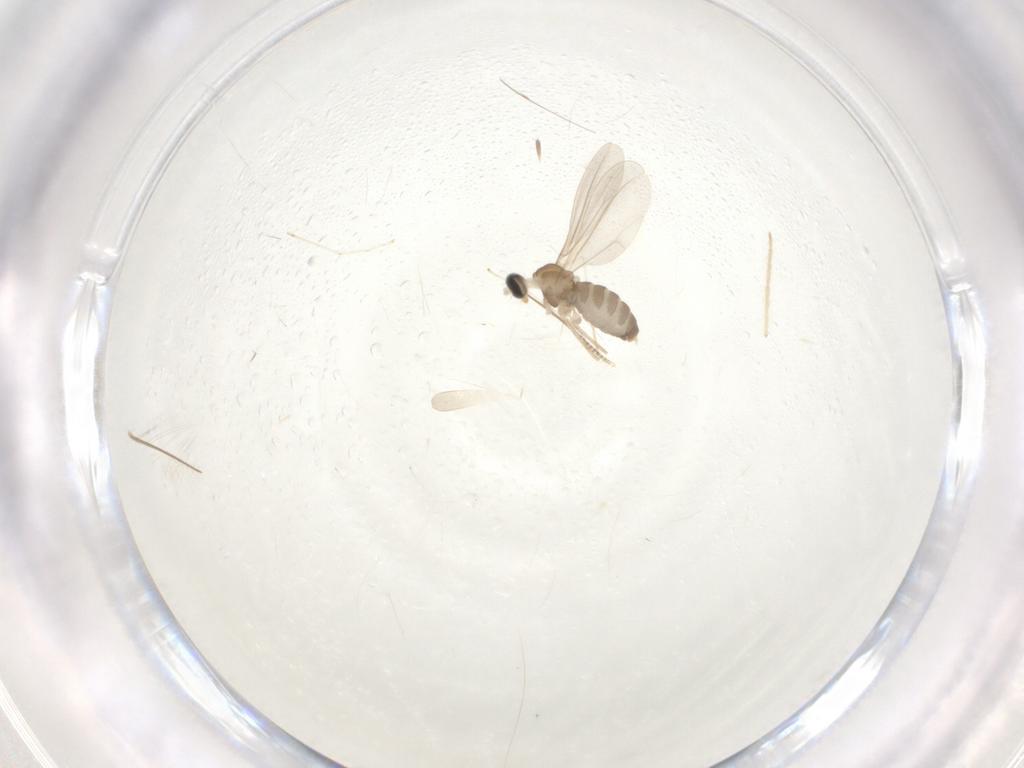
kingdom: Animalia
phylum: Arthropoda
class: Insecta
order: Diptera
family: Cecidomyiidae
